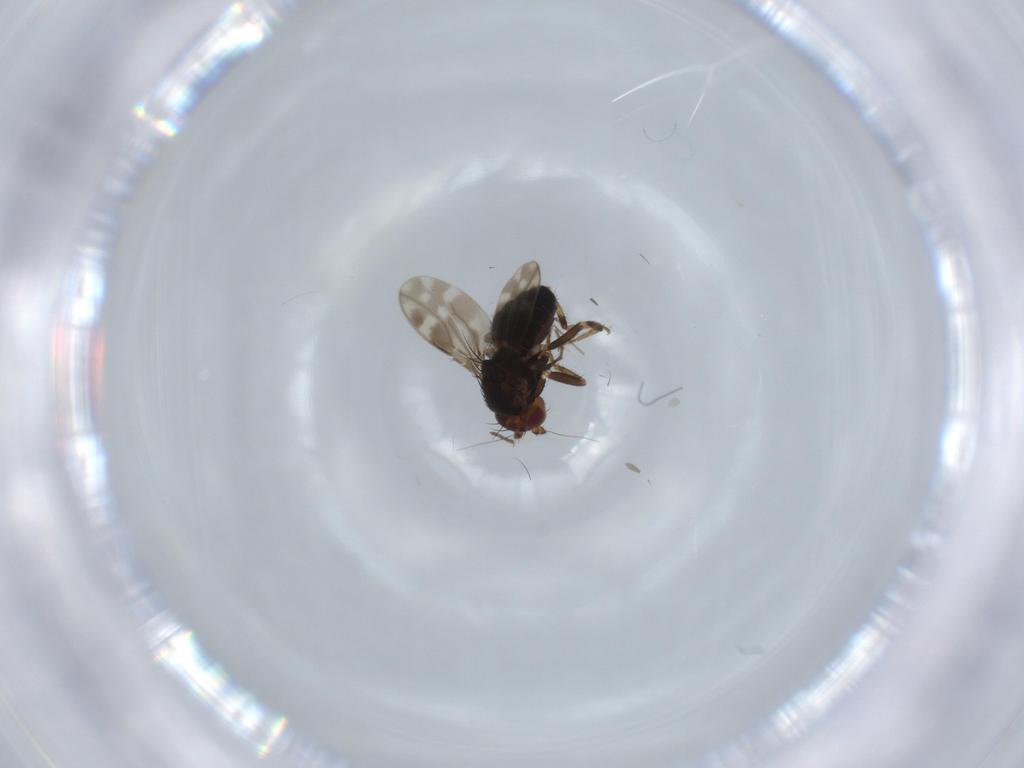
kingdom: Animalia
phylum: Arthropoda
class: Insecta
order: Diptera
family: Sphaeroceridae
